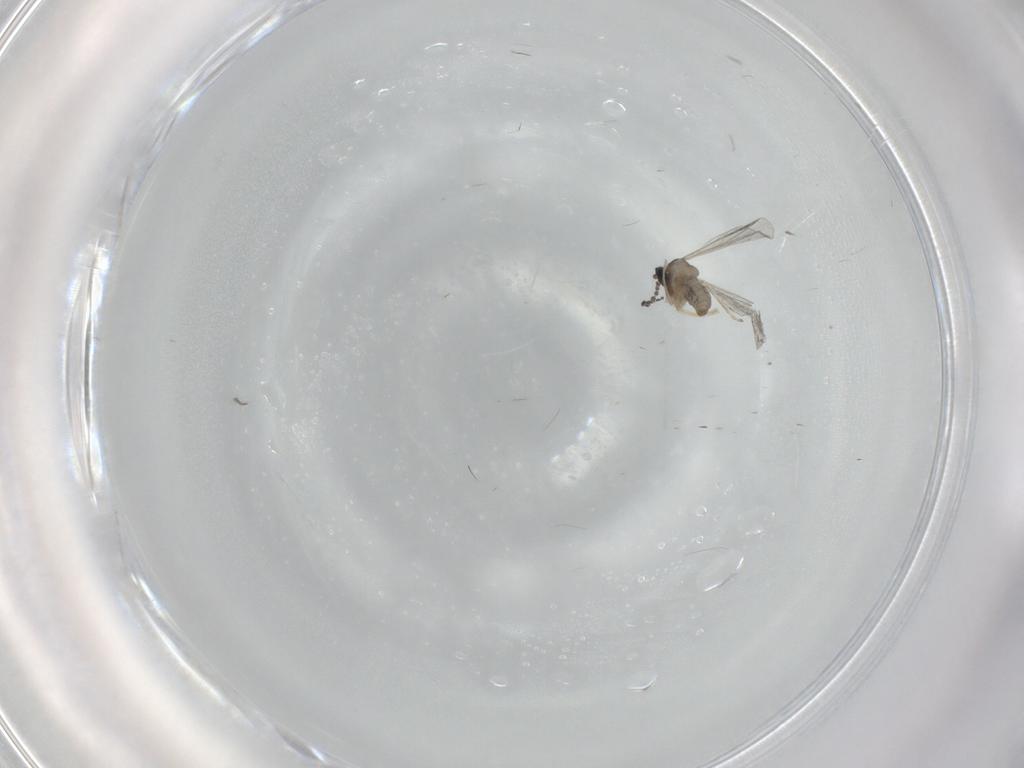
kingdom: Animalia
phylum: Arthropoda
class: Insecta
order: Diptera
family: Cecidomyiidae
